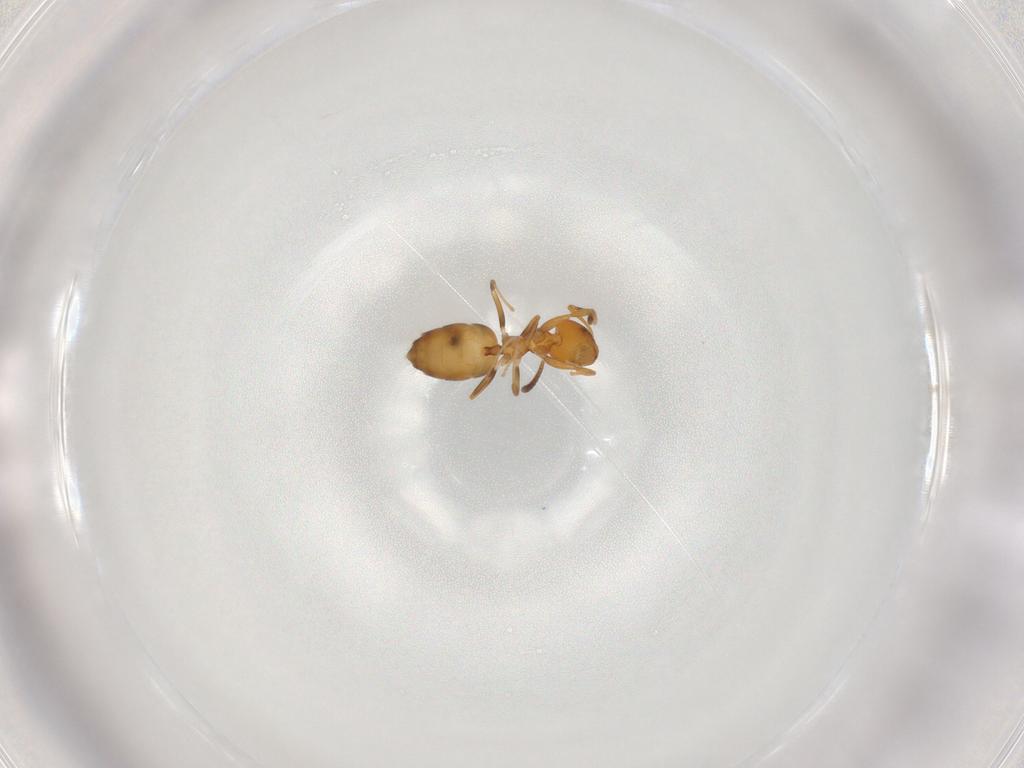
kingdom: Animalia
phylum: Arthropoda
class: Insecta
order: Hymenoptera
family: Formicidae
